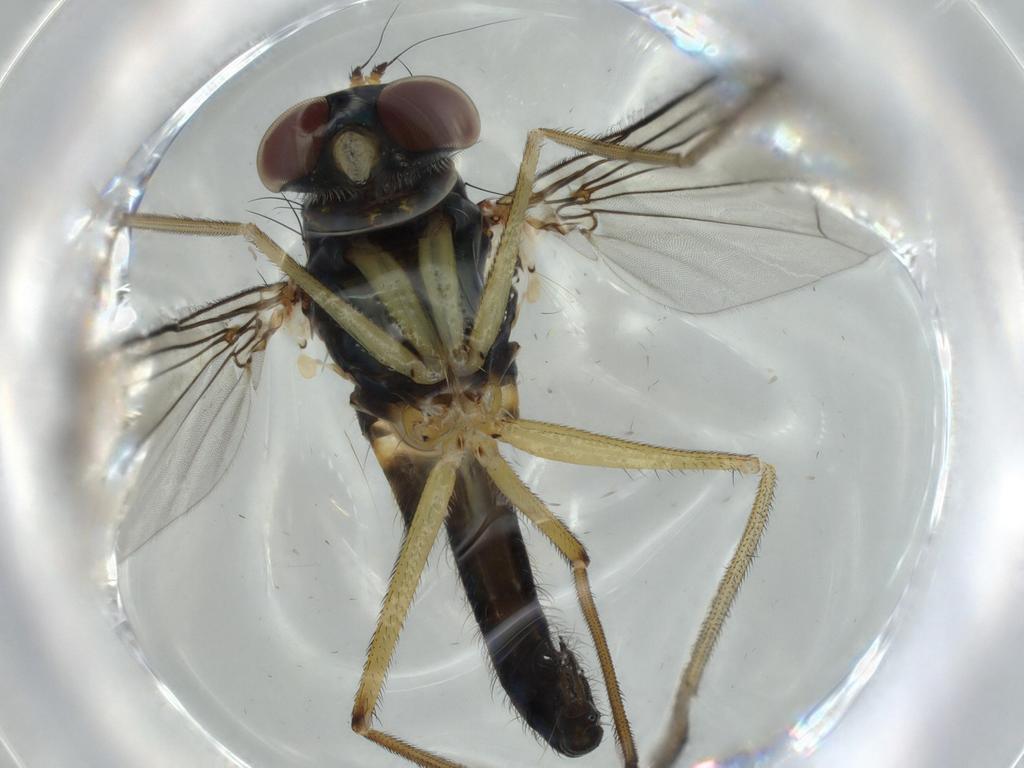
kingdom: Animalia
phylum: Arthropoda
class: Insecta
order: Diptera
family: Dolichopodidae
